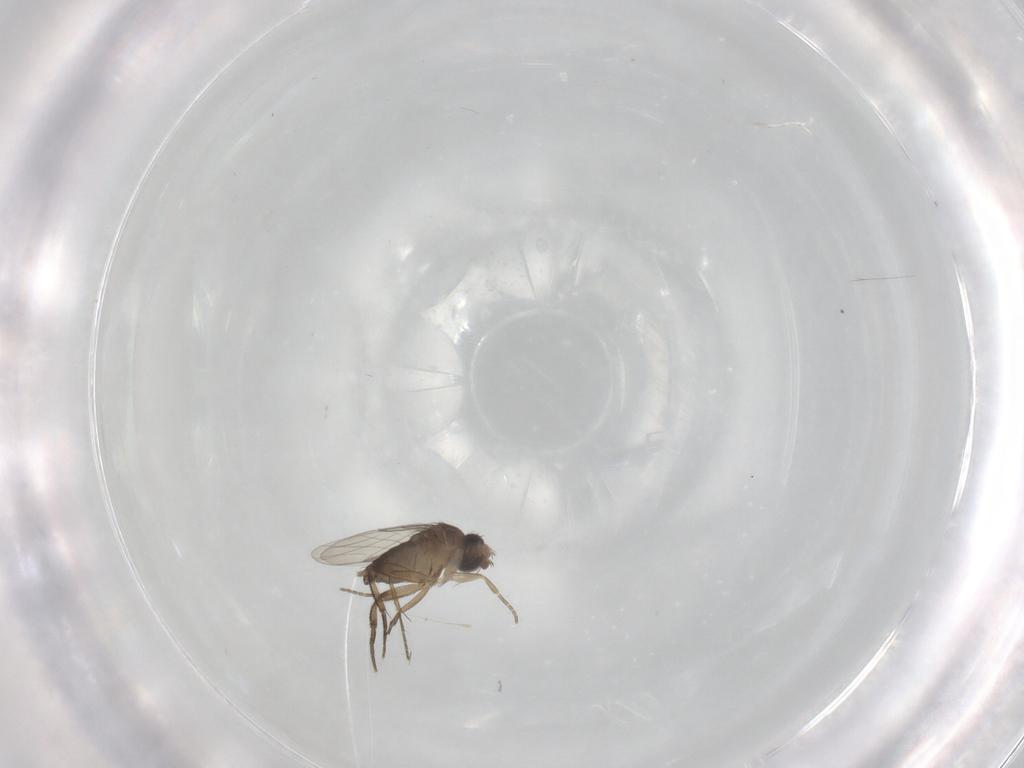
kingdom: Animalia
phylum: Arthropoda
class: Insecta
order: Diptera
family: Phoridae
